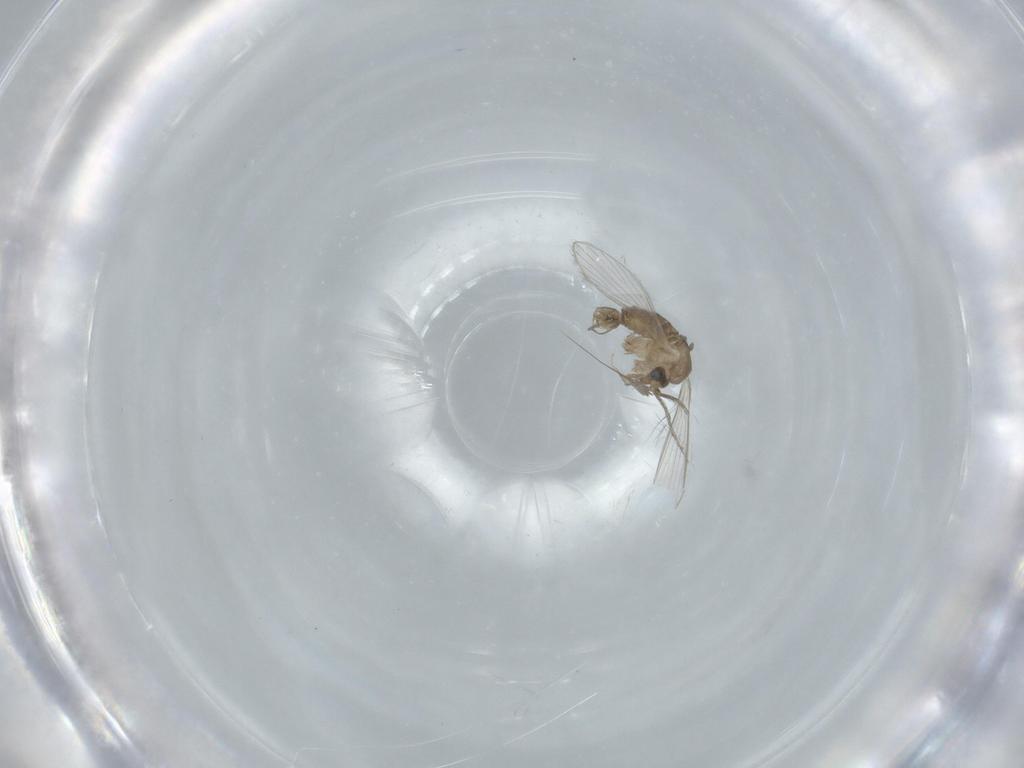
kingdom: Animalia
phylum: Arthropoda
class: Insecta
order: Diptera
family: Psychodidae
